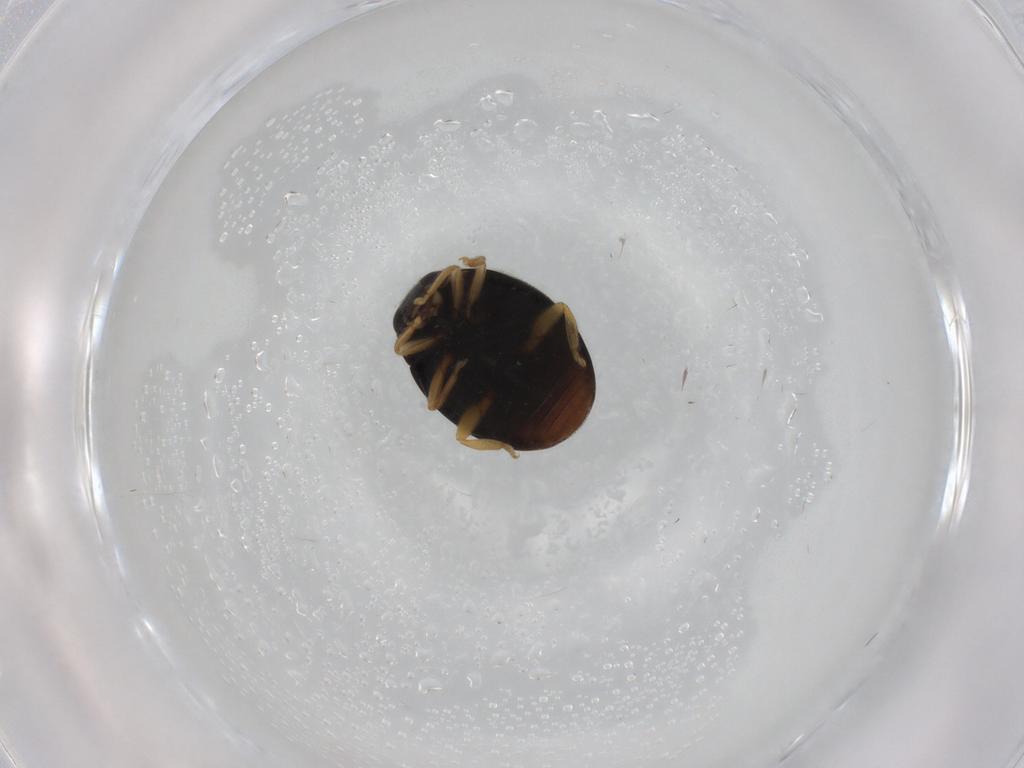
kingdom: Animalia
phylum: Arthropoda
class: Insecta
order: Coleoptera
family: Coccinellidae
